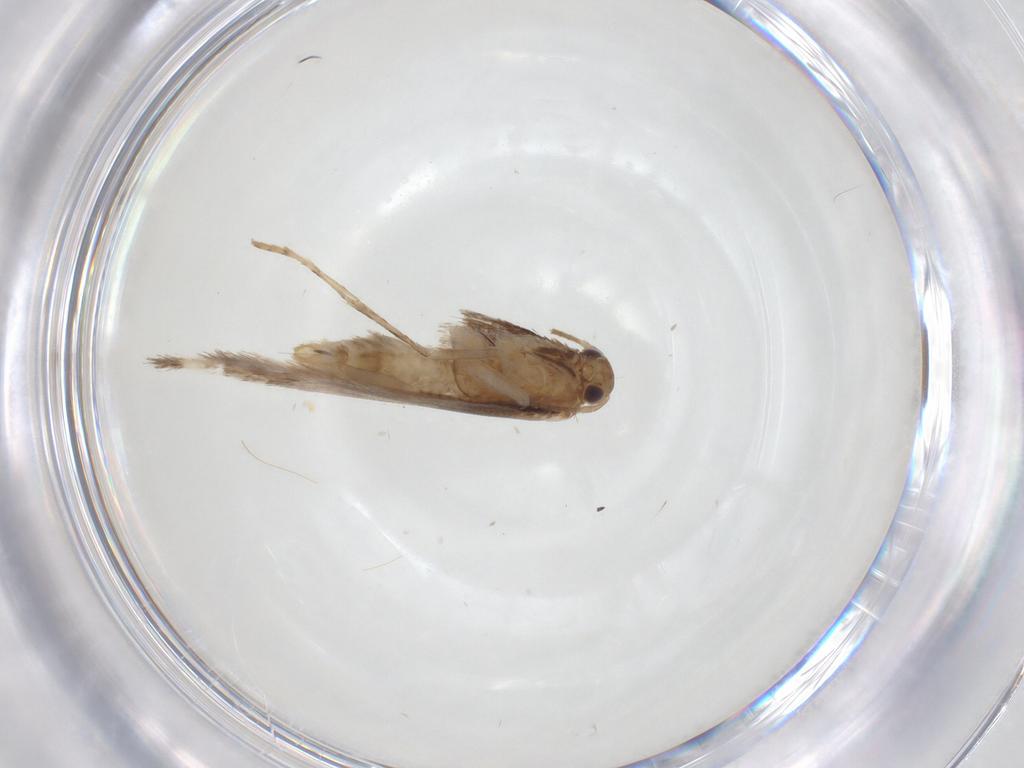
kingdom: Animalia
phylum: Arthropoda
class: Insecta
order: Lepidoptera
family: Gracillariidae
